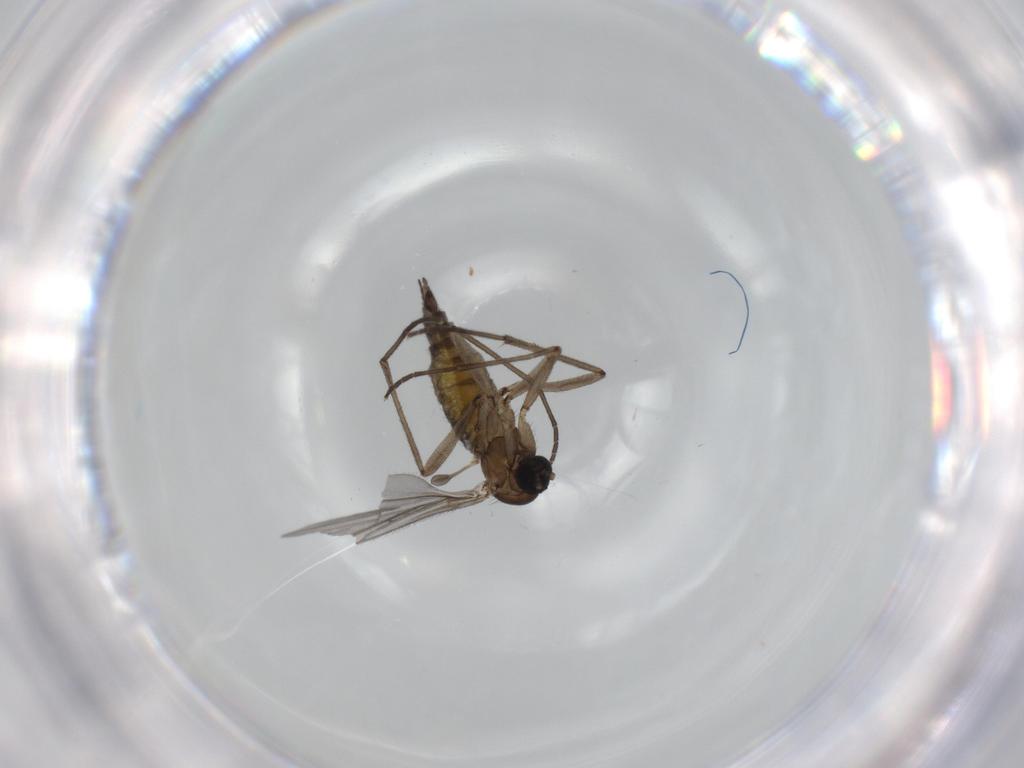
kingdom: Animalia
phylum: Arthropoda
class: Insecta
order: Diptera
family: Sciaridae
